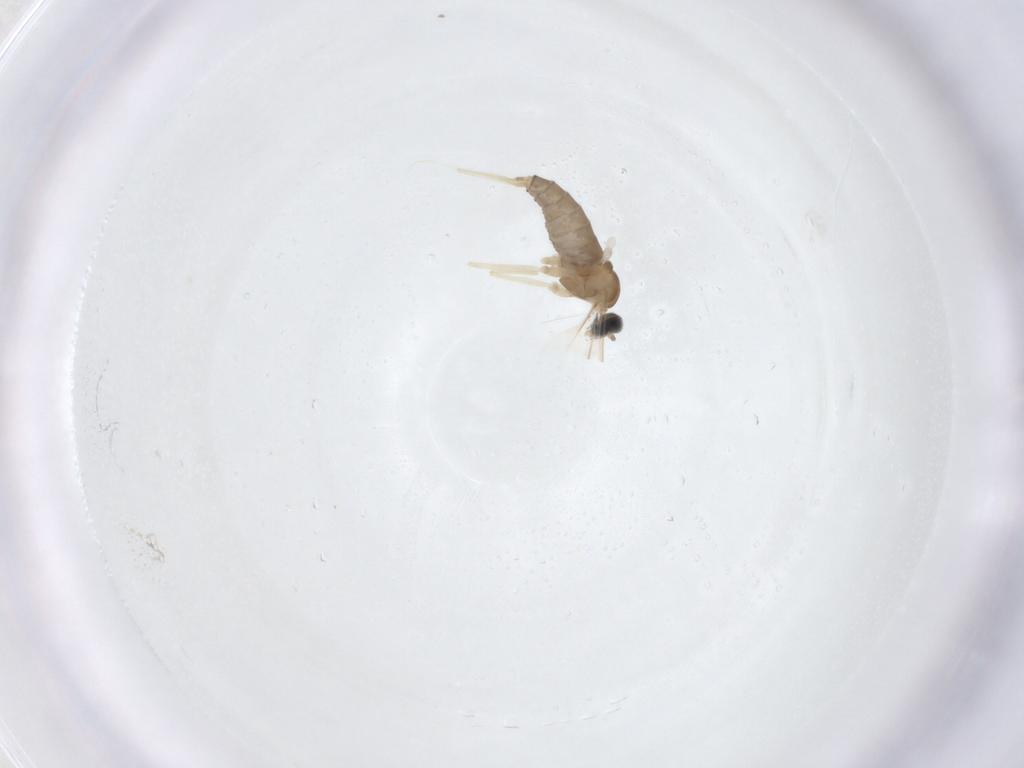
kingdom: Animalia
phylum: Arthropoda
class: Insecta
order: Diptera
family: Cecidomyiidae
